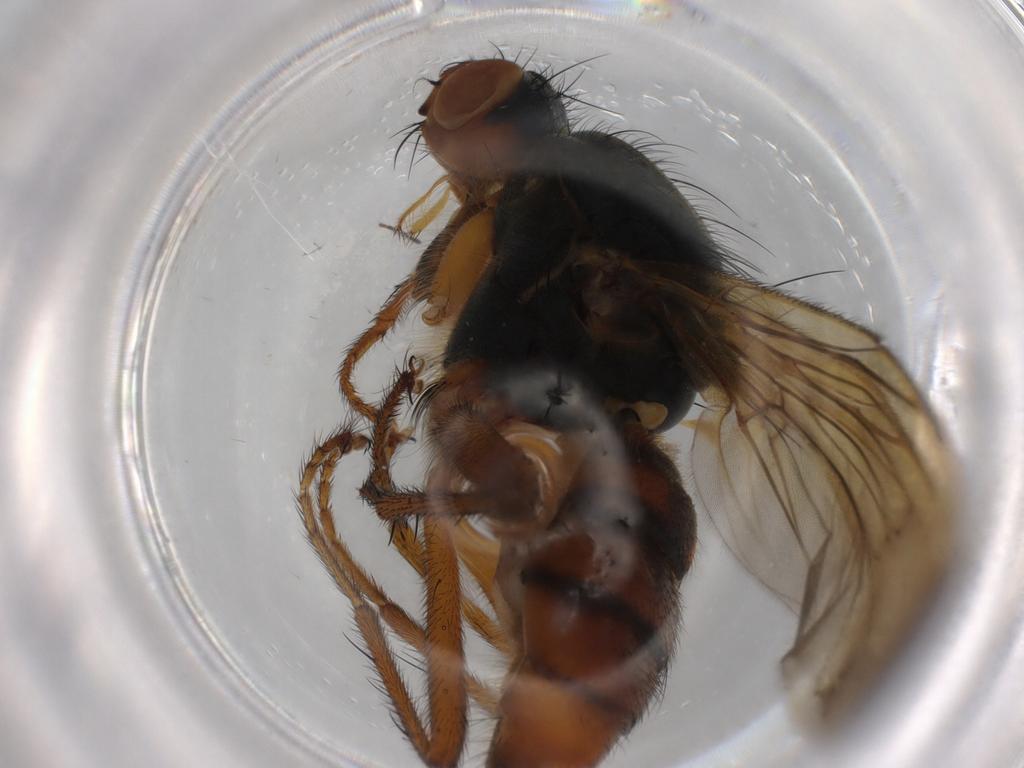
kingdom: Animalia
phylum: Arthropoda
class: Insecta
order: Diptera
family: Scathophagidae
